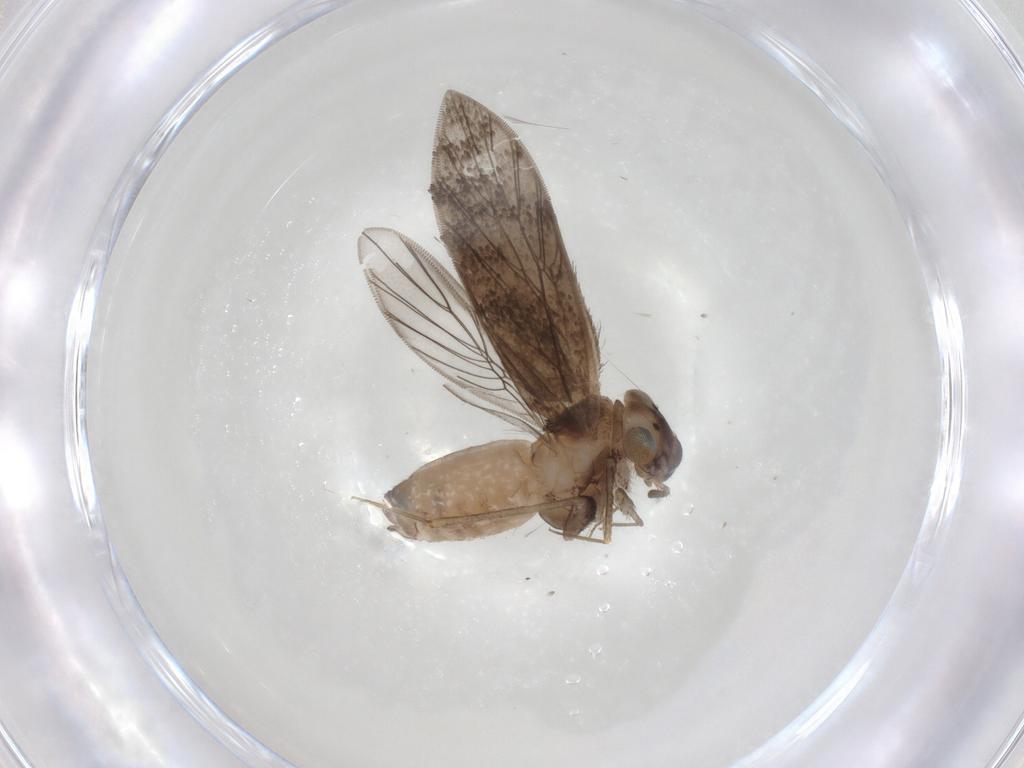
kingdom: Animalia
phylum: Arthropoda
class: Insecta
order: Psocodea
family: Lepidopsocidae
